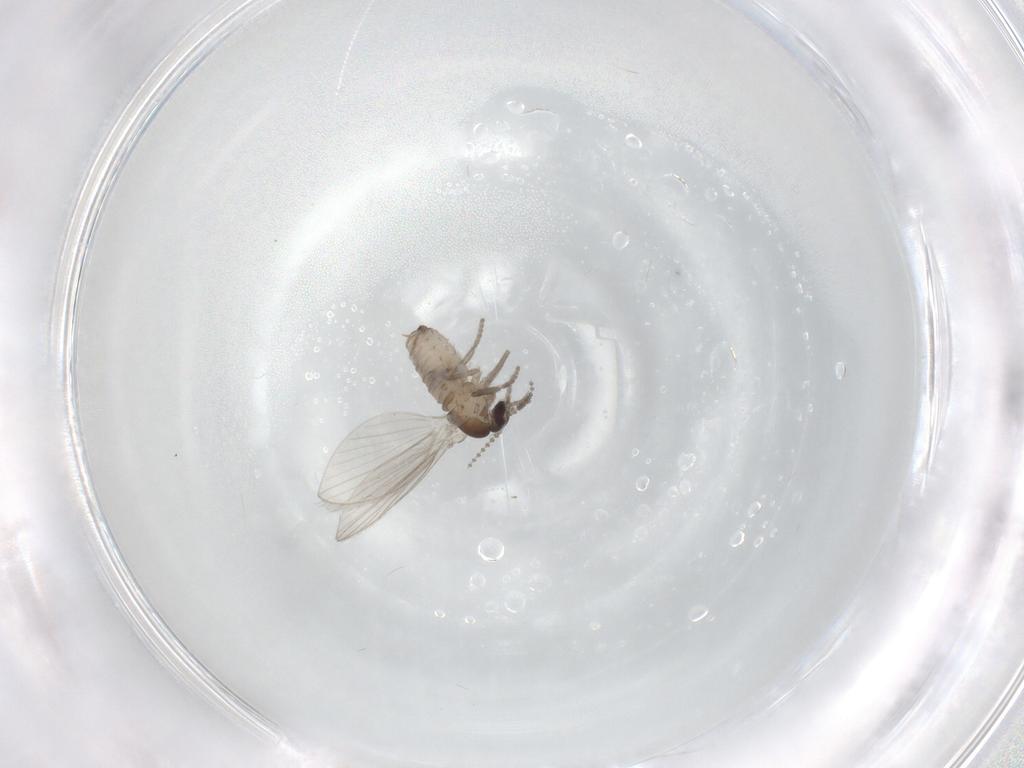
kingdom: Animalia
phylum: Arthropoda
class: Insecta
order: Diptera
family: Psychodidae
